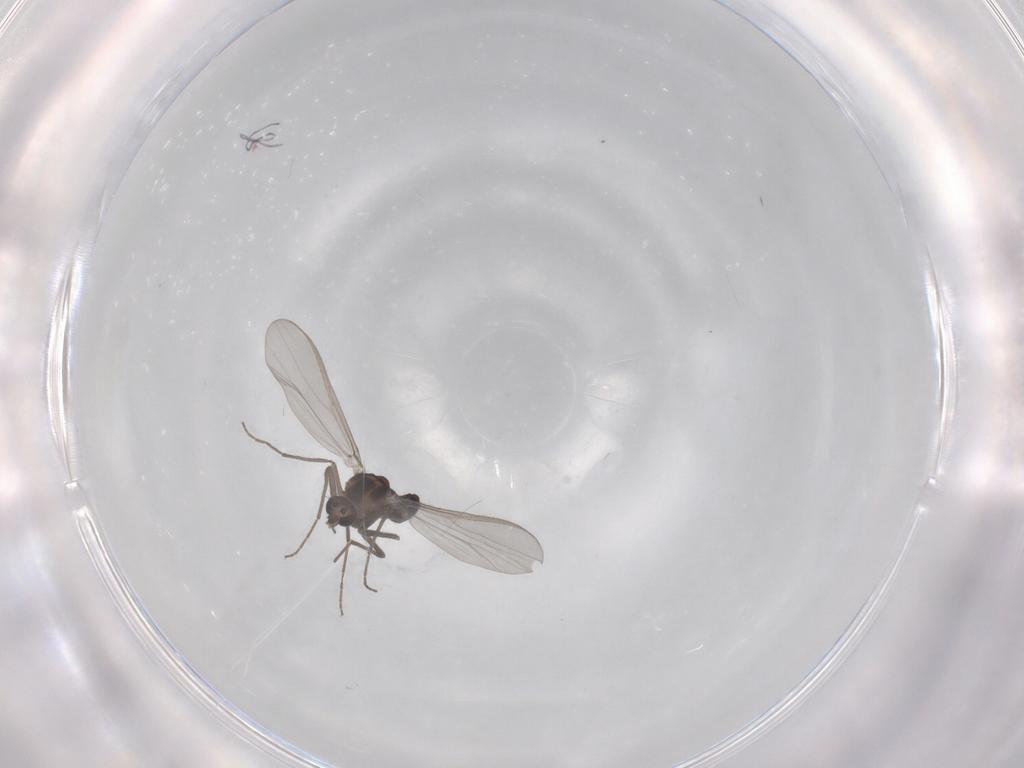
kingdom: Animalia
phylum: Arthropoda
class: Insecta
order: Diptera
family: Chironomidae
